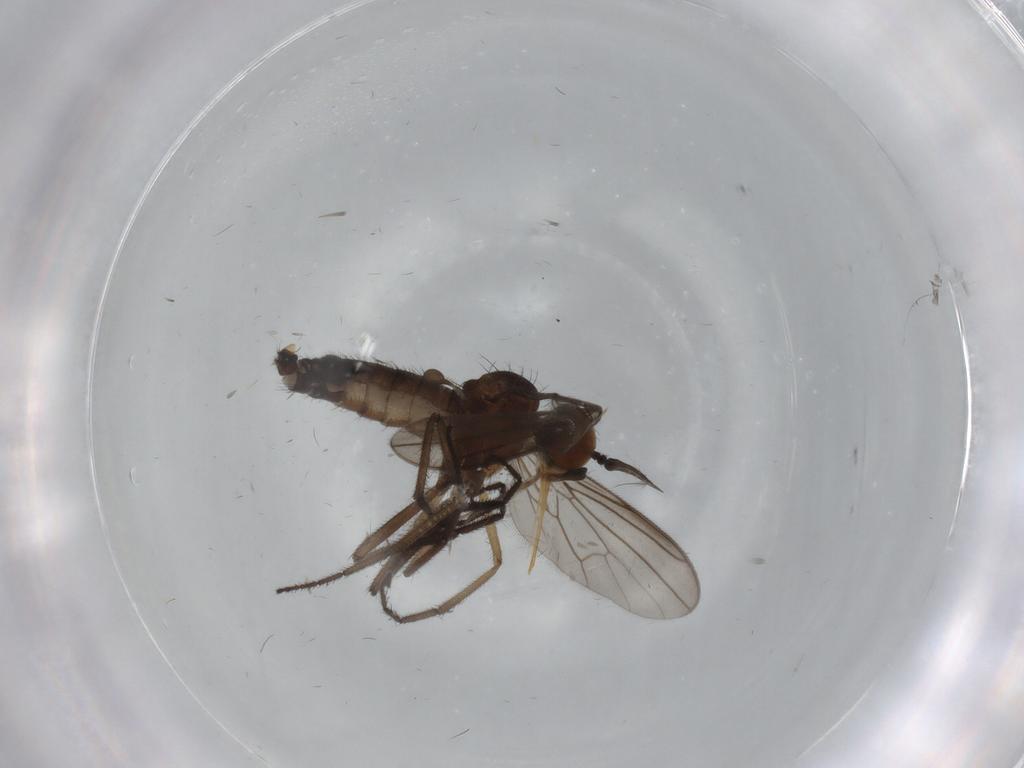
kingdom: Animalia
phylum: Arthropoda
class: Insecta
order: Diptera
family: Empididae
